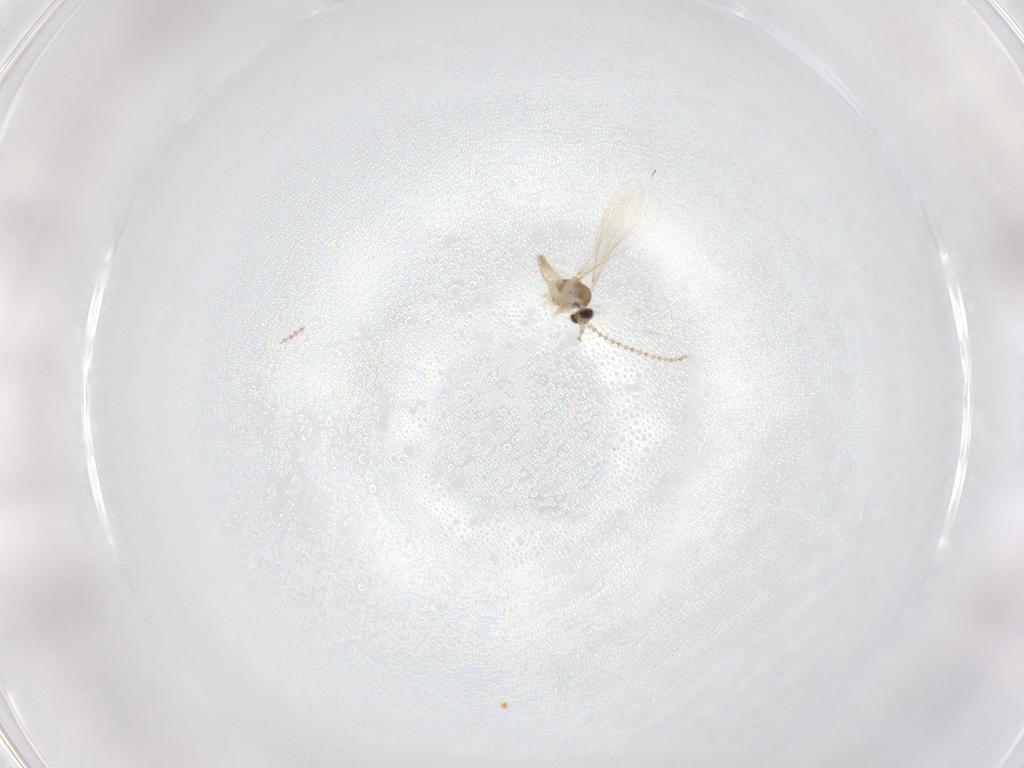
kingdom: Animalia
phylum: Arthropoda
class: Insecta
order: Diptera
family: Cecidomyiidae
